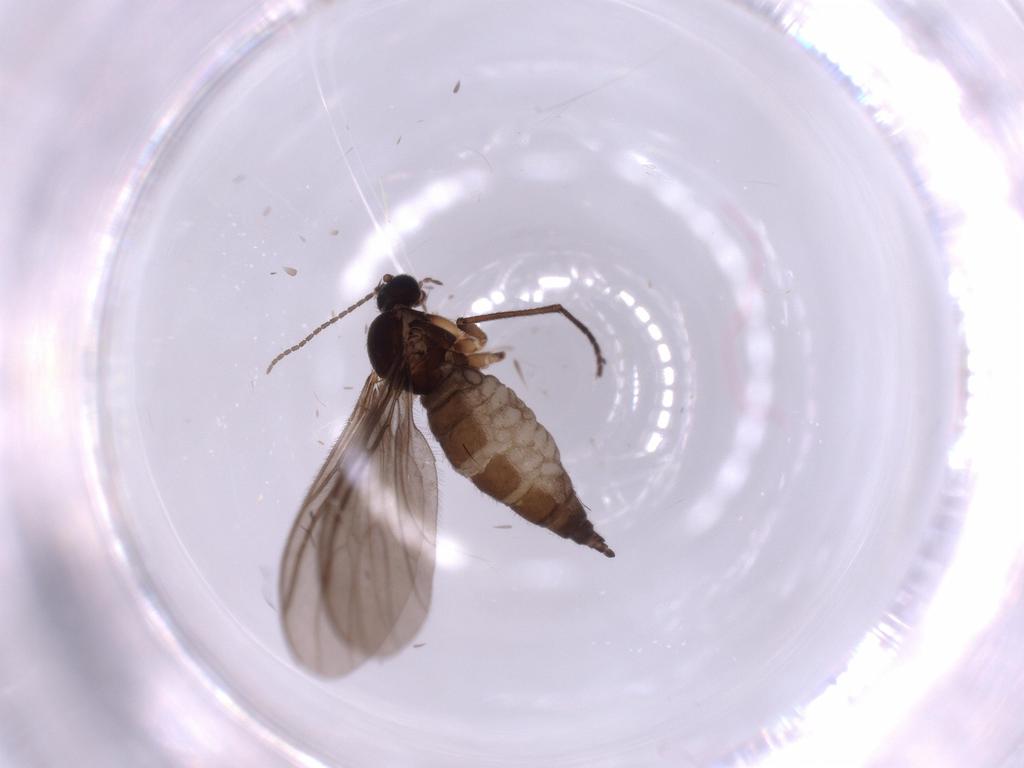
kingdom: Animalia
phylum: Arthropoda
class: Insecta
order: Diptera
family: Sciaridae
